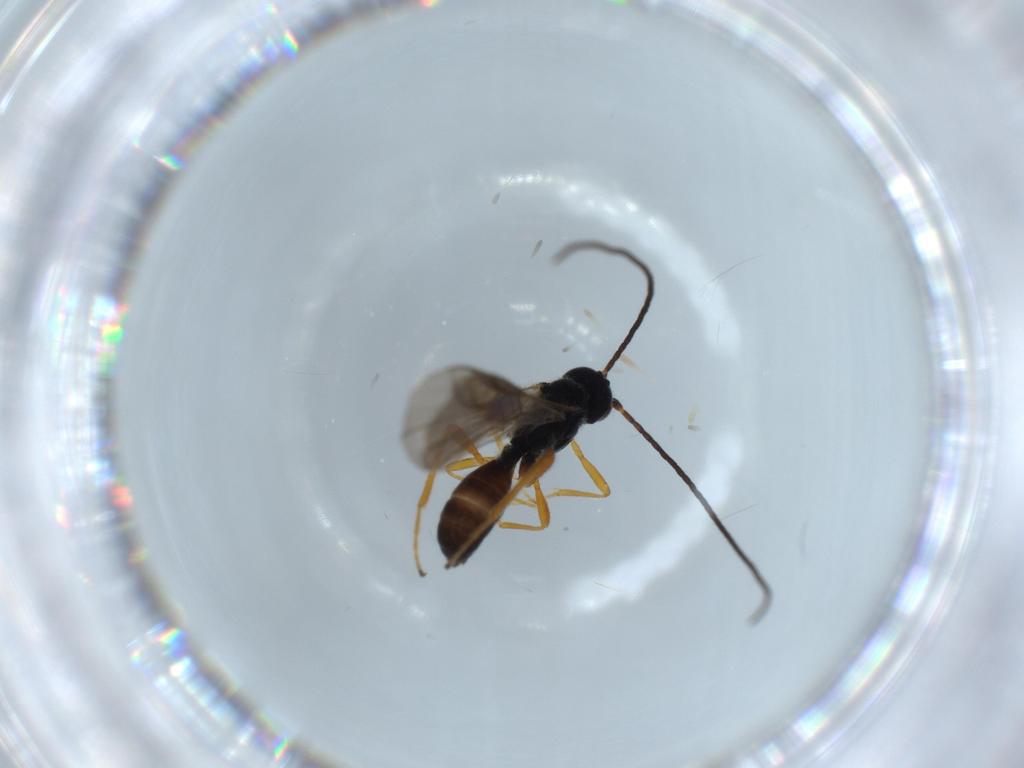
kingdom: Animalia
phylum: Arthropoda
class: Insecta
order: Hymenoptera
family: Braconidae
